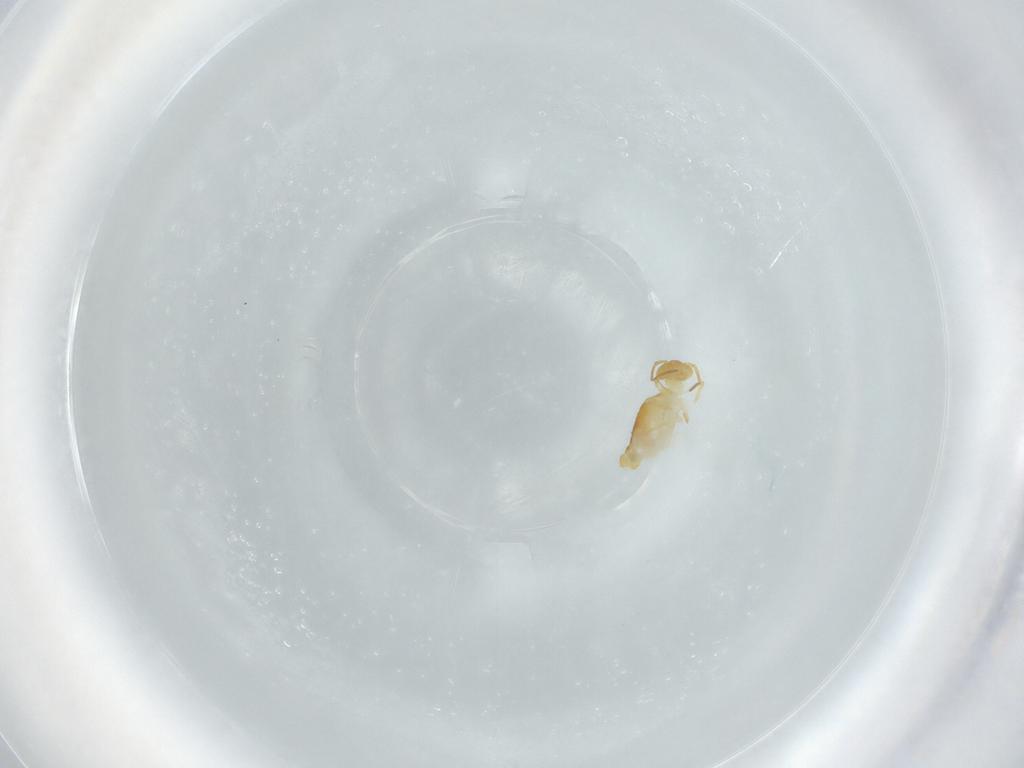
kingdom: Animalia
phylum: Arthropoda
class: Collembola
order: Symphypleona
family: Bourletiellidae
